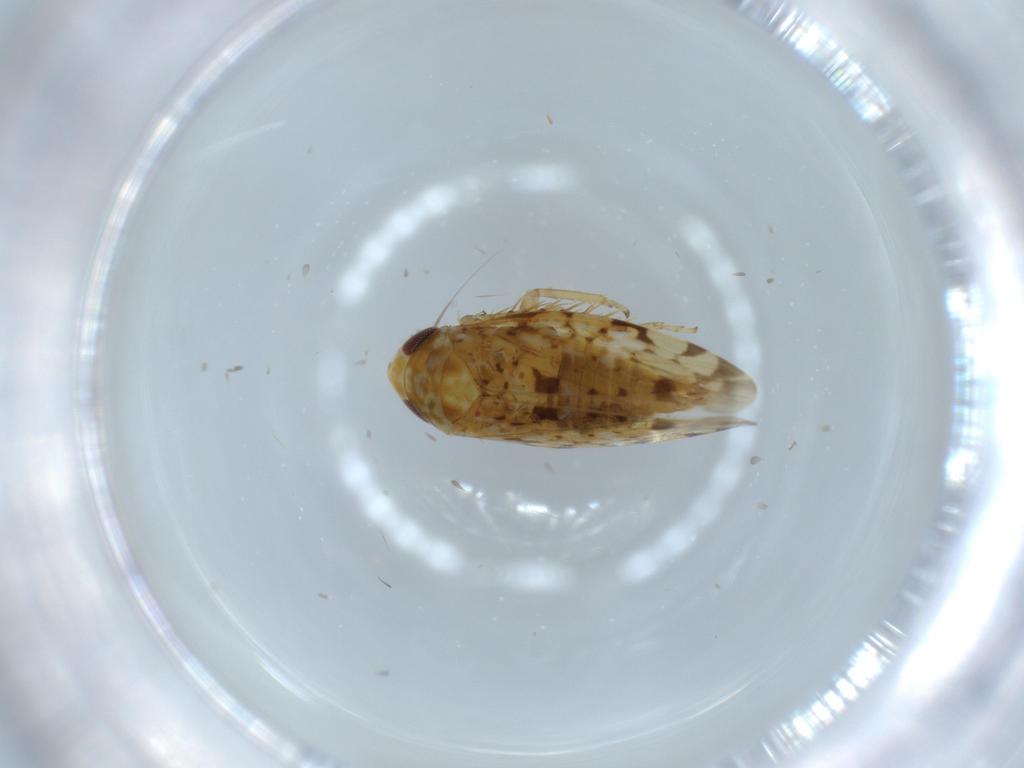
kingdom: Animalia
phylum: Arthropoda
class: Insecta
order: Hemiptera
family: Cicadellidae
